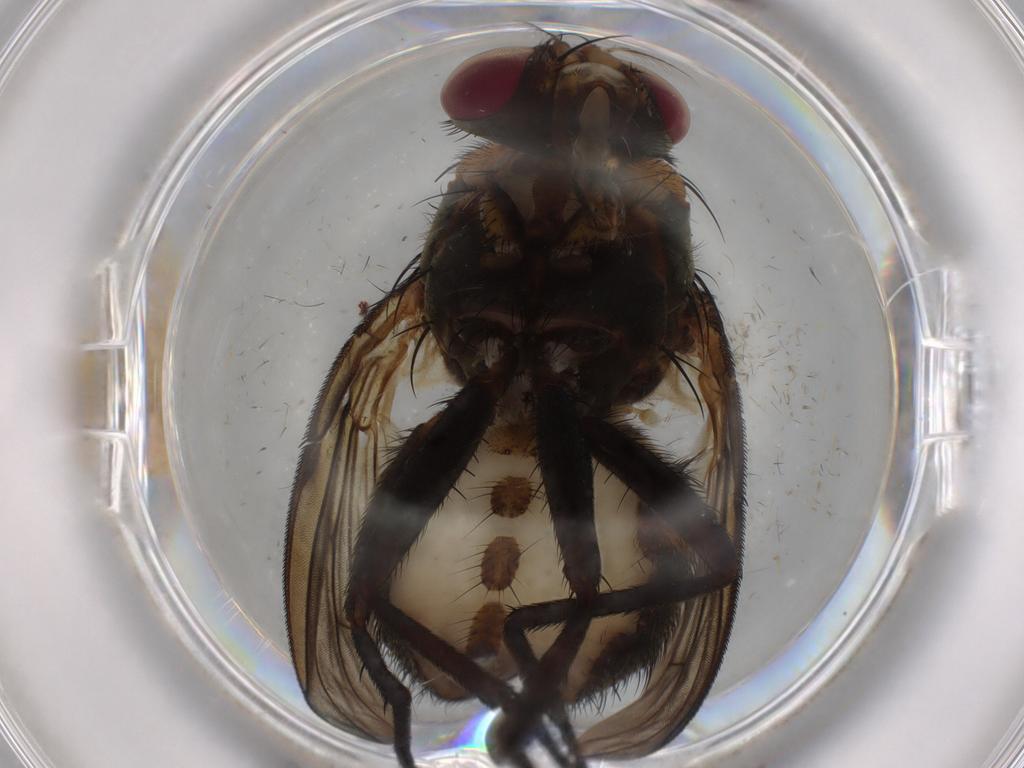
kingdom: Animalia
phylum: Arthropoda
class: Insecta
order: Diptera
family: Muscidae
